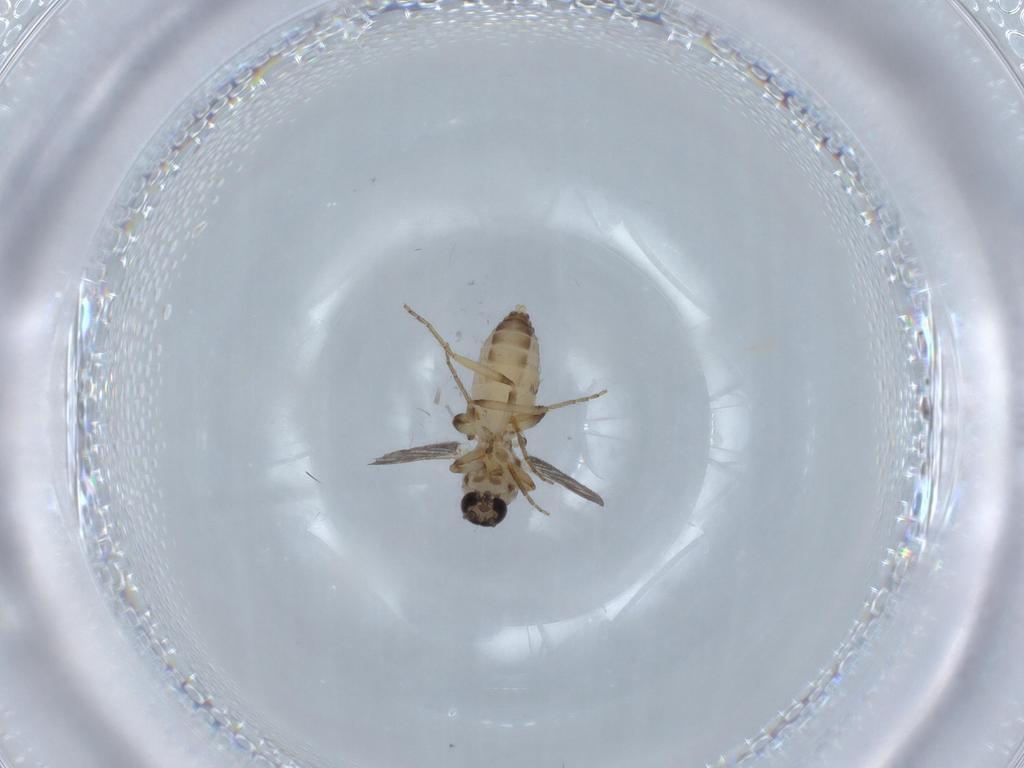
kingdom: Animalia
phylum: Arthropoda
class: Insecta
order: Diptera
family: Ceratopogonidae
